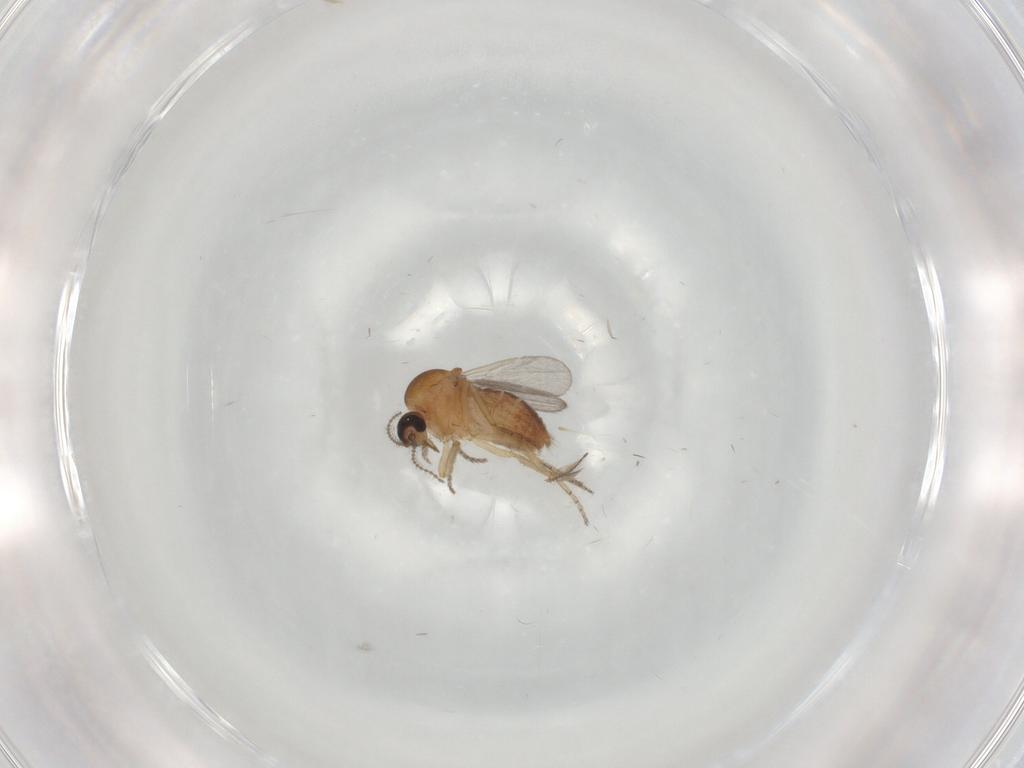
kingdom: Animalia
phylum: Arthropoda
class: Insecta
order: Diptera
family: Ceratopogonidae
